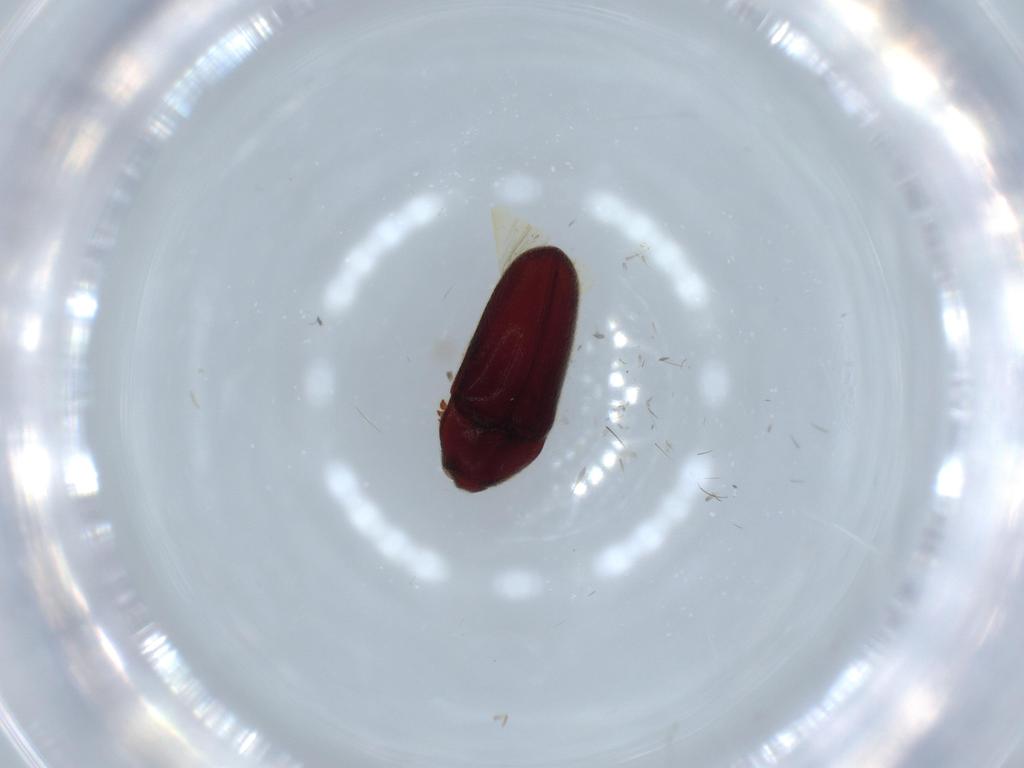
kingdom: Animalia
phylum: Arthropoda
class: Insecta
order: Coleoptera
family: Throscidae
